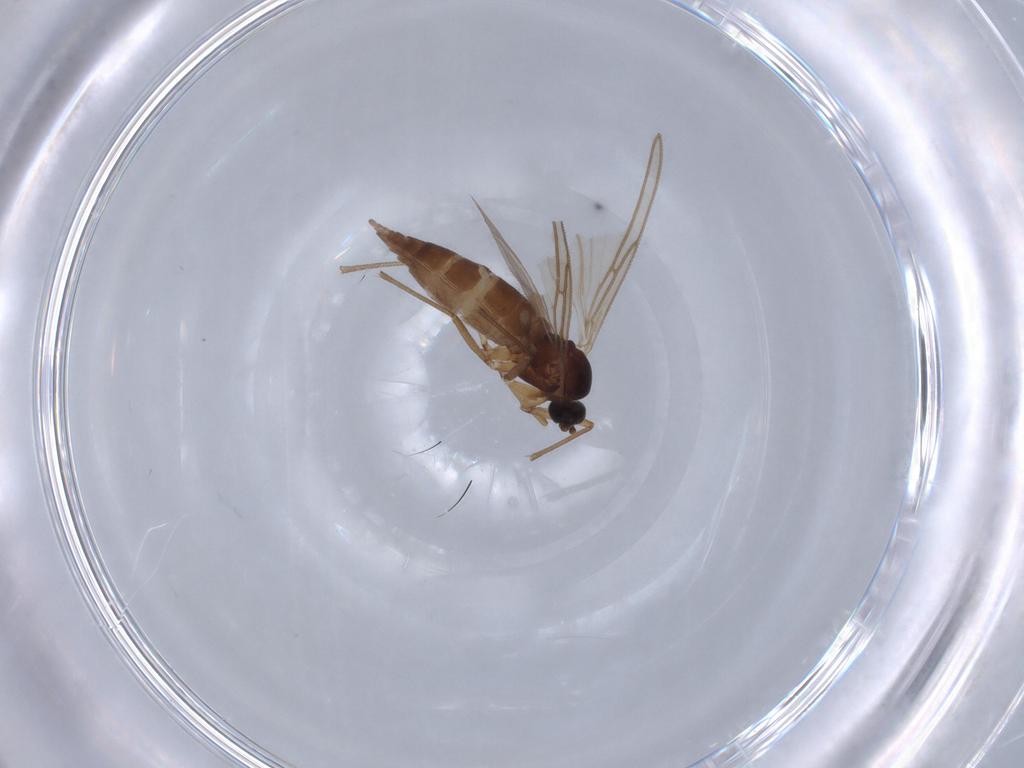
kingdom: Animalia
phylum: Arthropoda
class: Insecta
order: Diptera
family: Sciaridae
